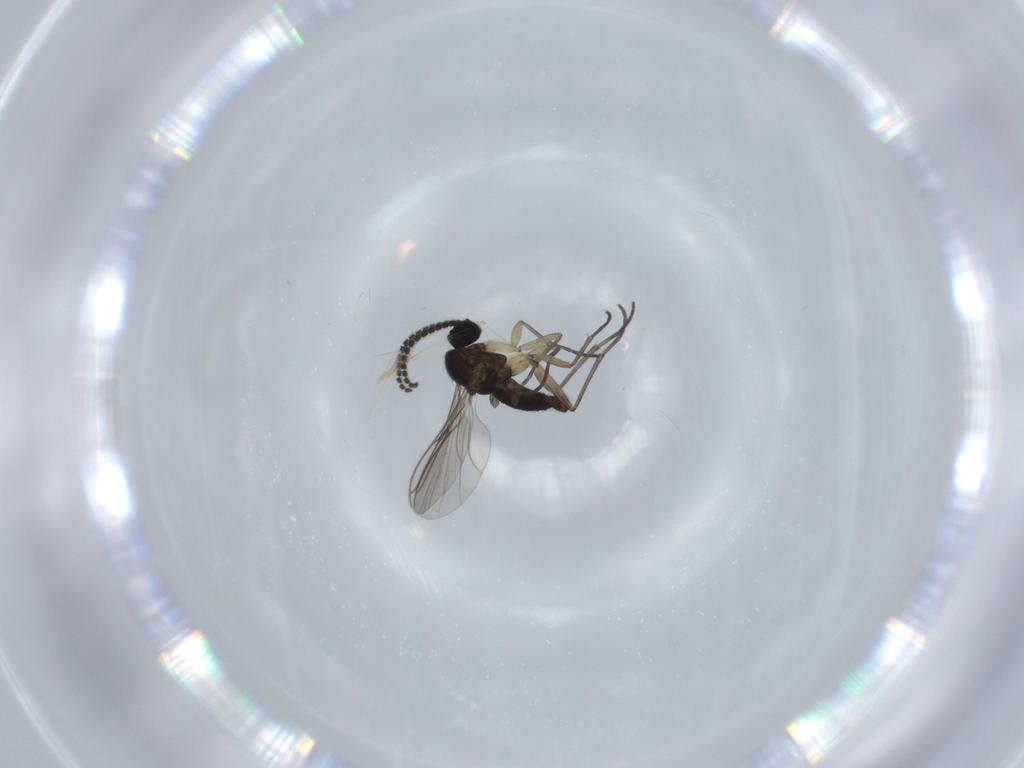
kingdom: Animalia
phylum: Arthropoda
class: Insecta
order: Diptera
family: Sciaridae
